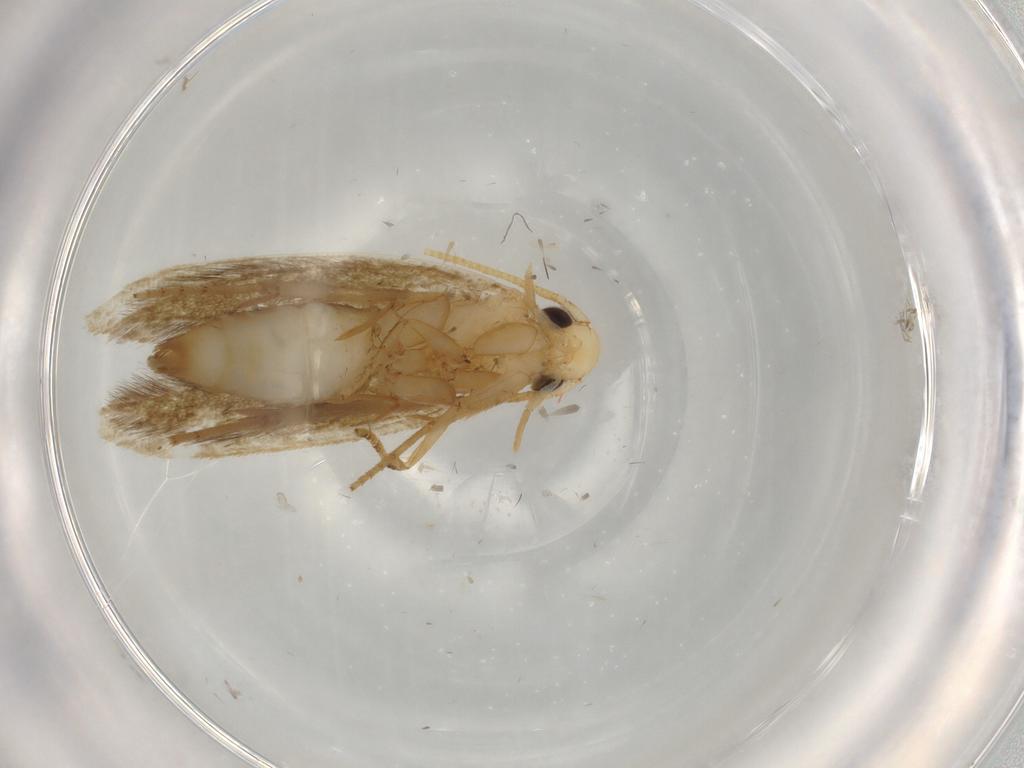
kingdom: Animalia
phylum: Arthropoda
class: Insecta
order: Lepidoptera
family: Tineidae
